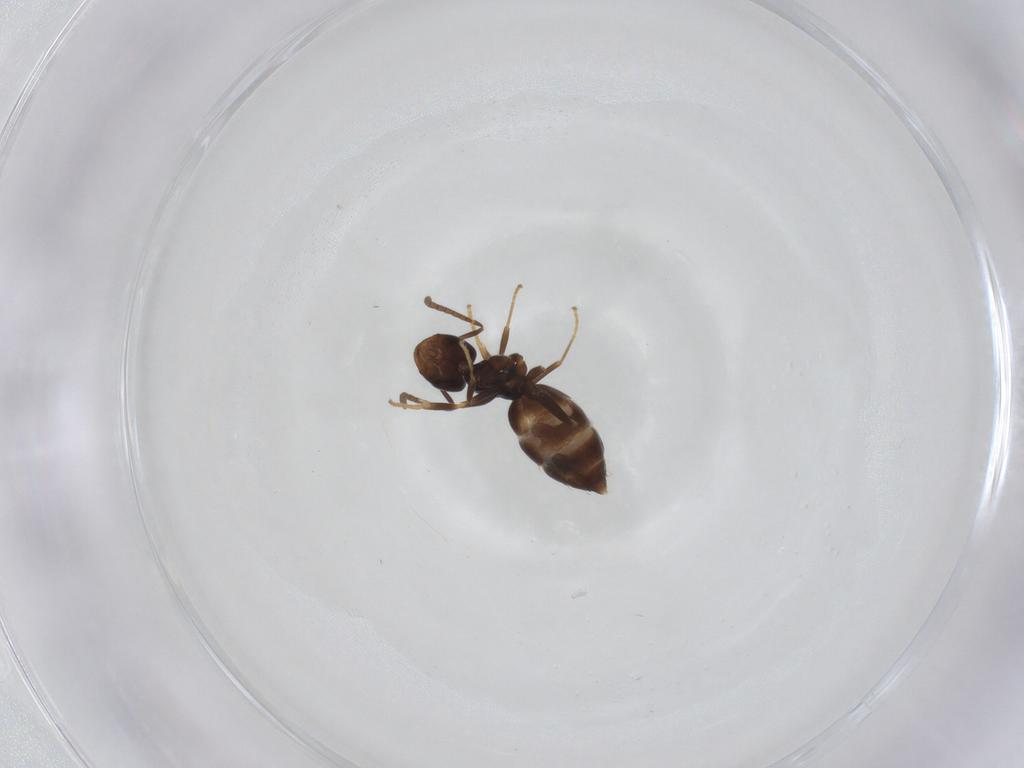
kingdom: Animalia
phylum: Arthropoda
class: Insecta
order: Hymenoptera
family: Formicidae
